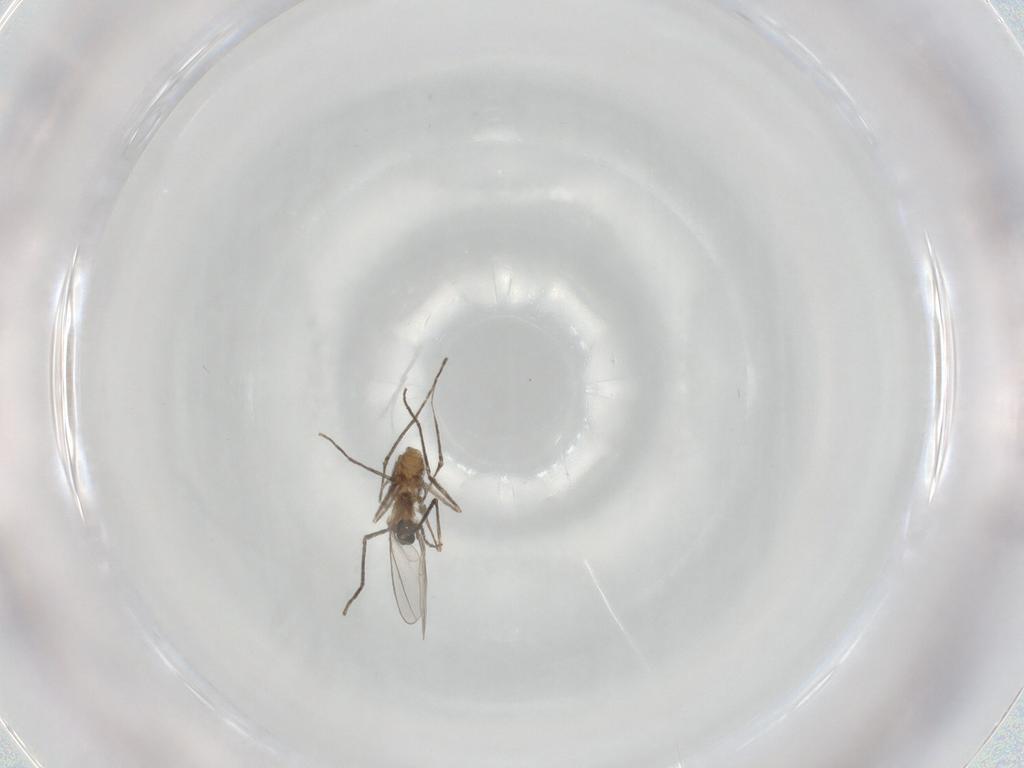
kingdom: Animalia
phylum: Arthropoda
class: Insecta
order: Diptera
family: Cecidomyiidae
